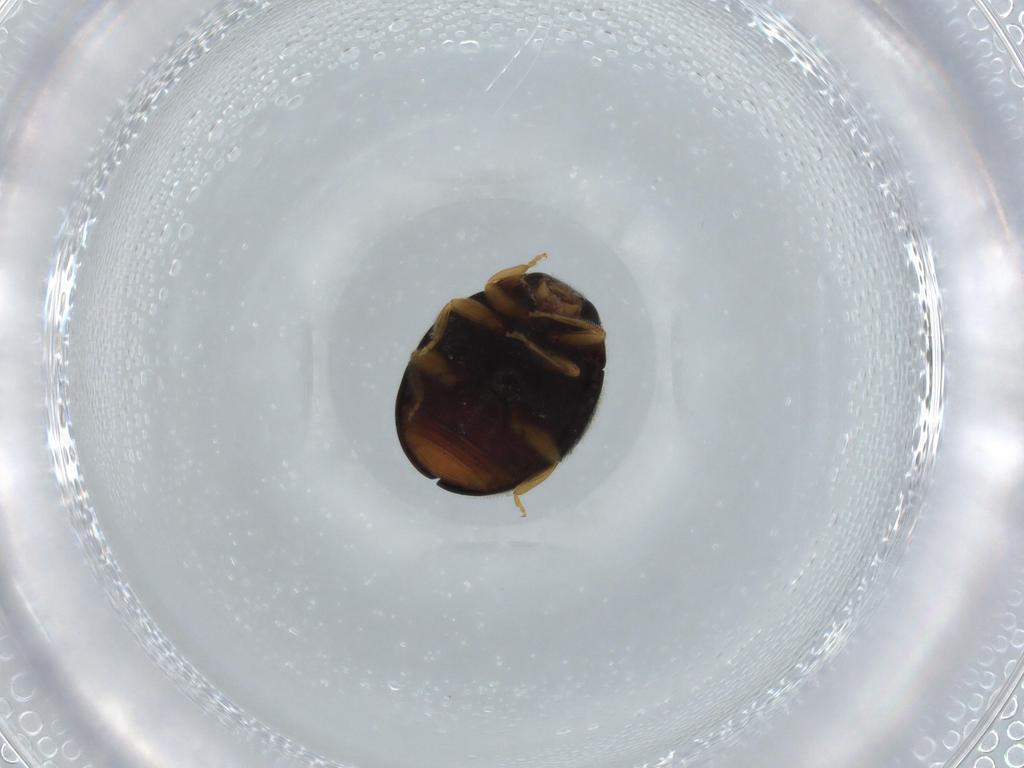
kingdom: Animalia
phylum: Arthropoda
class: Insecta
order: Coleoptera
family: Coccinellidae
